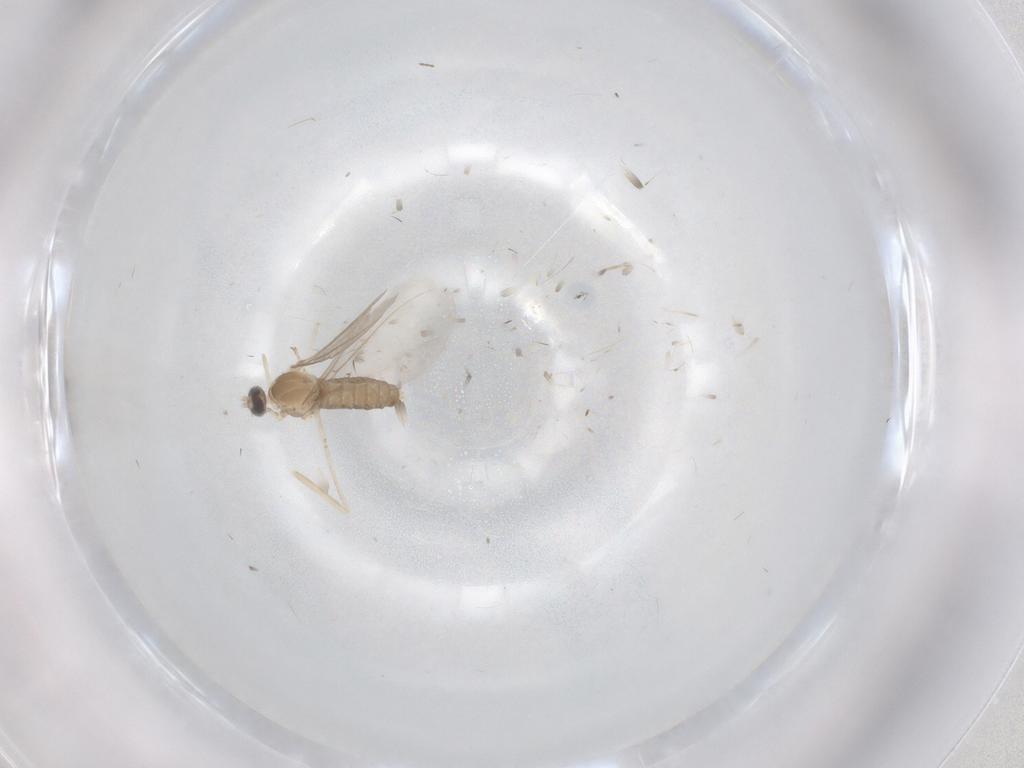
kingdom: Animalia
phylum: Arthropoda
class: Insecta
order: Diptera
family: Cecidomyiidae
